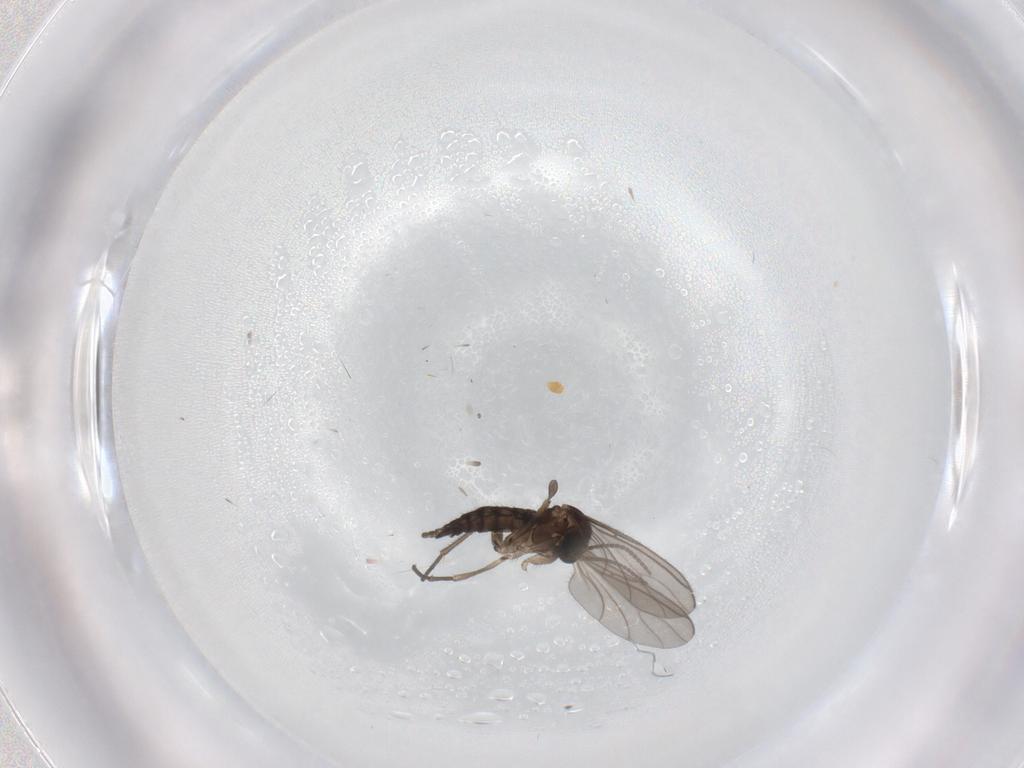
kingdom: Animalia
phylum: Arthropoda
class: Insecta
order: Diptera
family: Sciaridae
